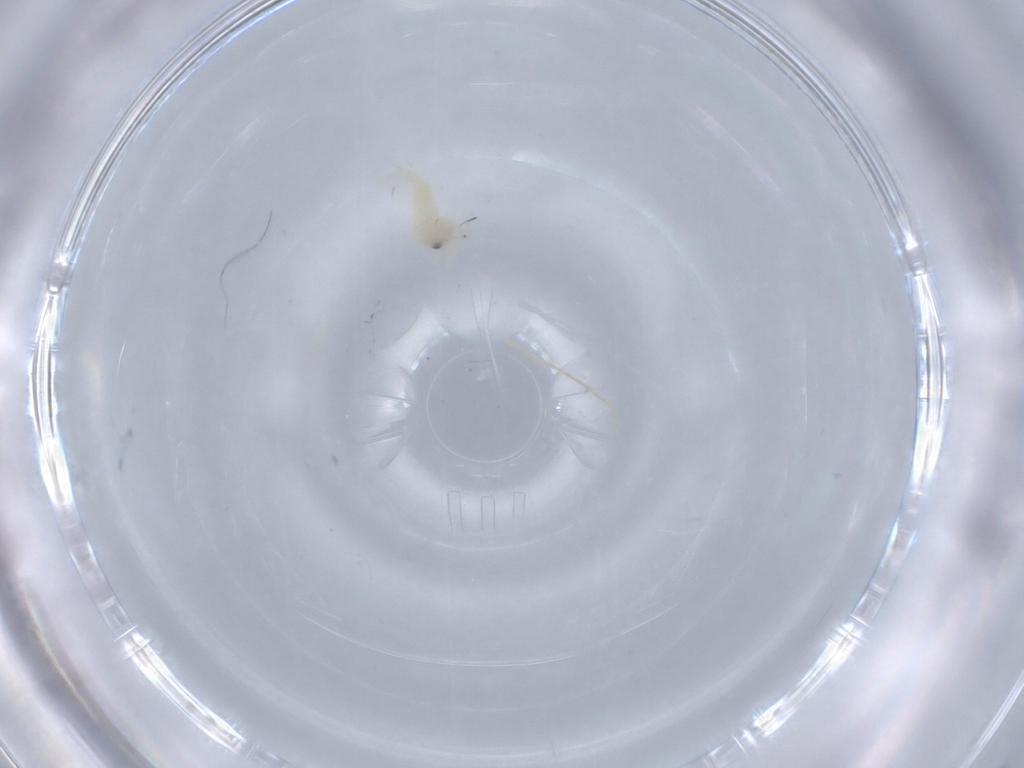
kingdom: Animalia
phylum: Arthropoda
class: Insecta
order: Hemiptera
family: Aleyrodidae
